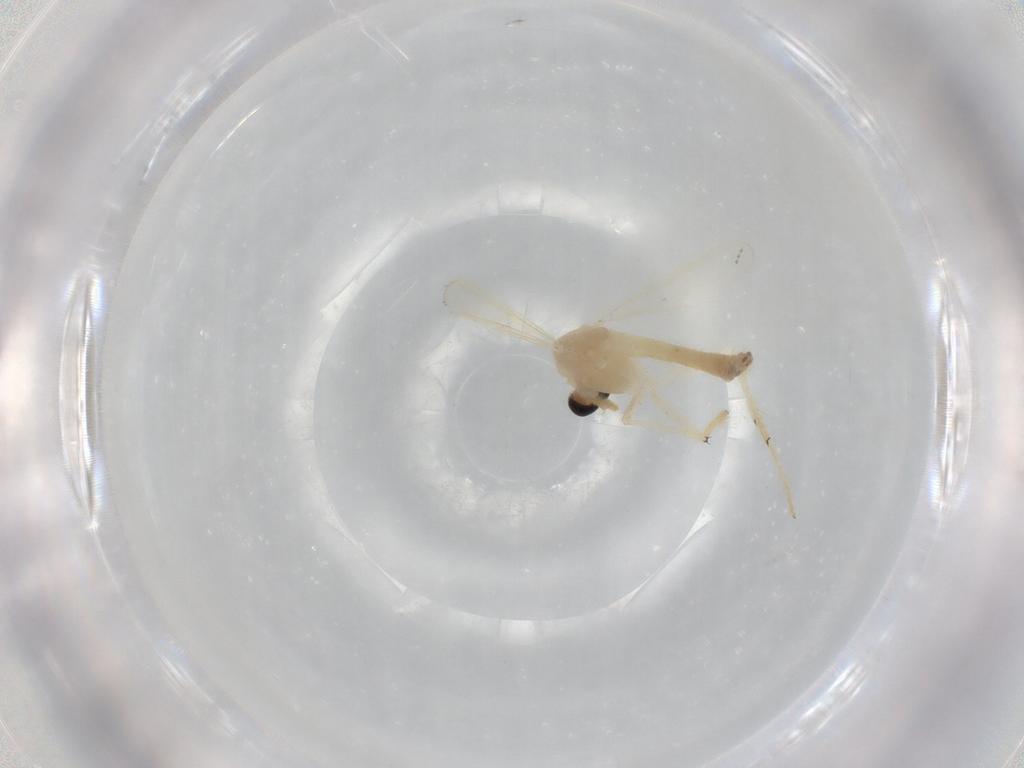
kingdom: Animalia
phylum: Arthropoda
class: Insecta
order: Diptera
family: Chironomidae
